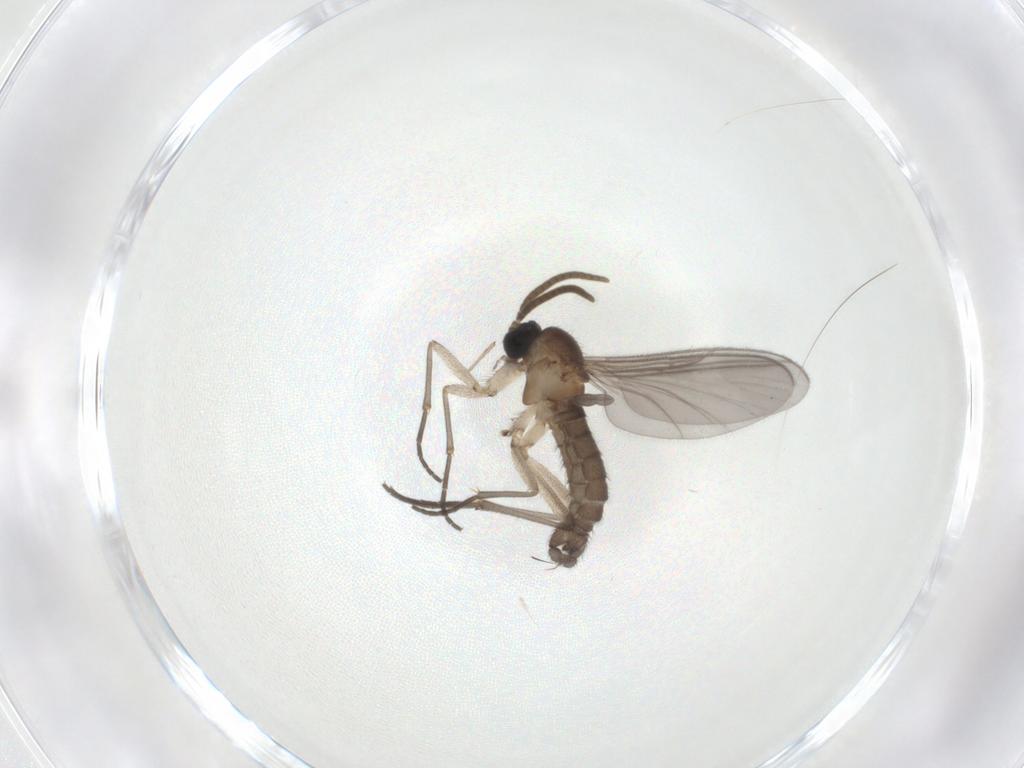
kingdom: Animalia
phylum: Arthropoda
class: Insecta
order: Diptera
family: Hybotidae
